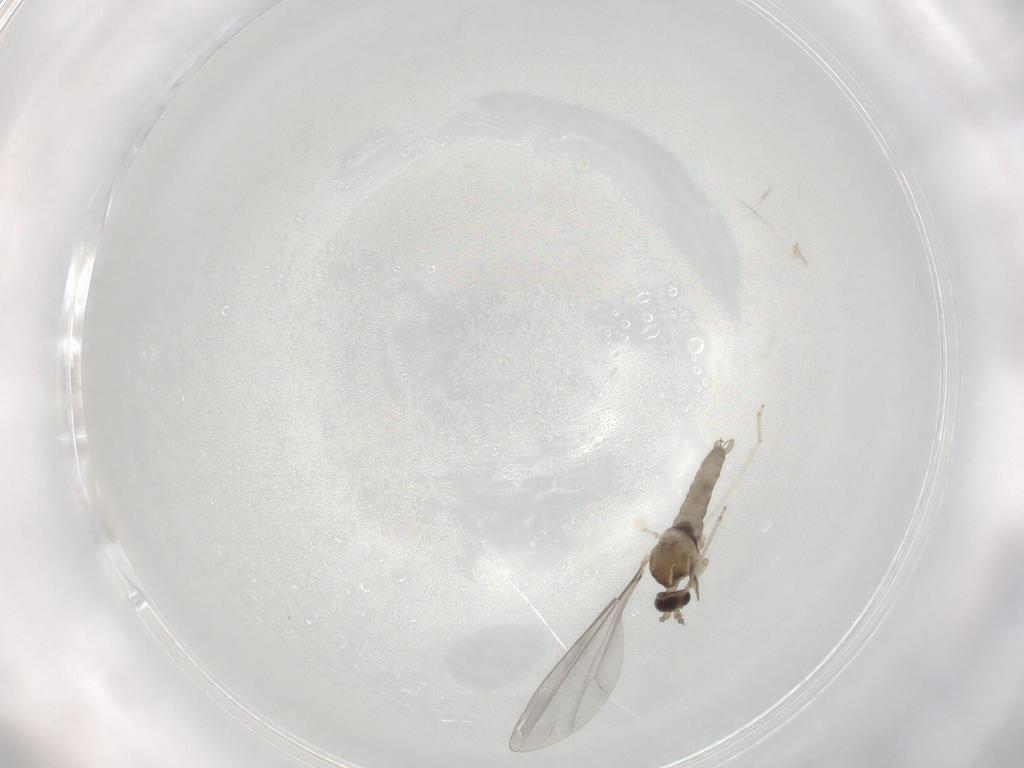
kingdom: Animalia
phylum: Arthropoda
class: Insecta
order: Diptera
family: Cecidomyiidae
